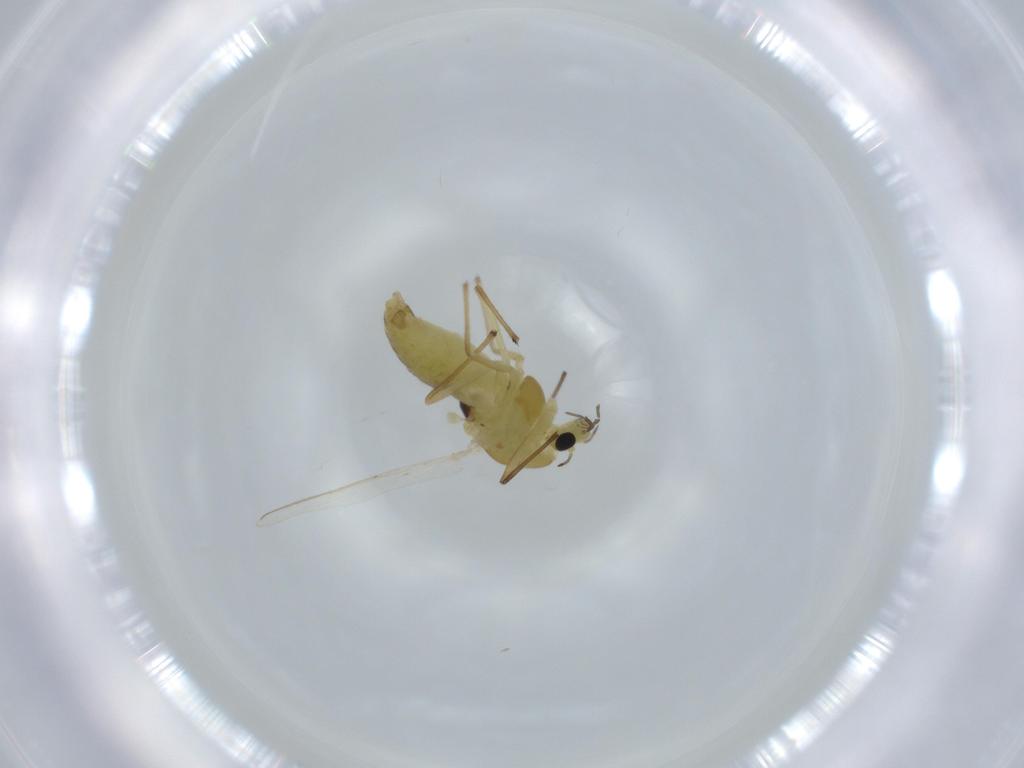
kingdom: Animalia
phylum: Arthropoda
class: Insecta
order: Diptera
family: Chironomidae
